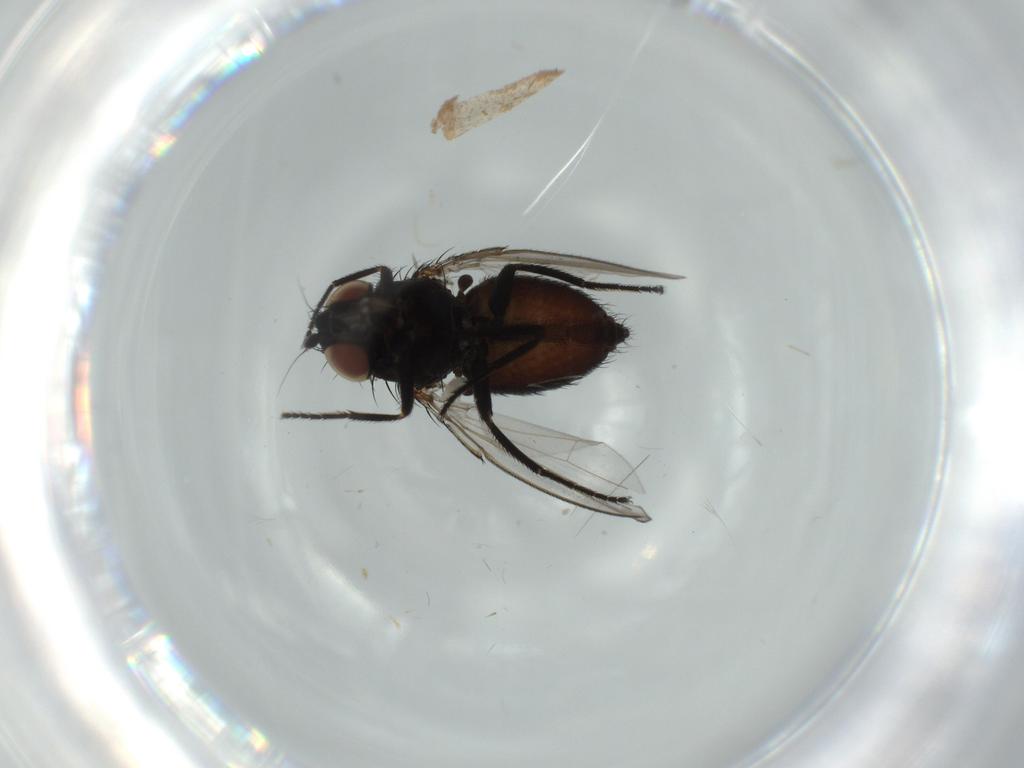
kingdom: Animalia
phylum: Arthropoda
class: Insecta
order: Diptera
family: Milichiidae
